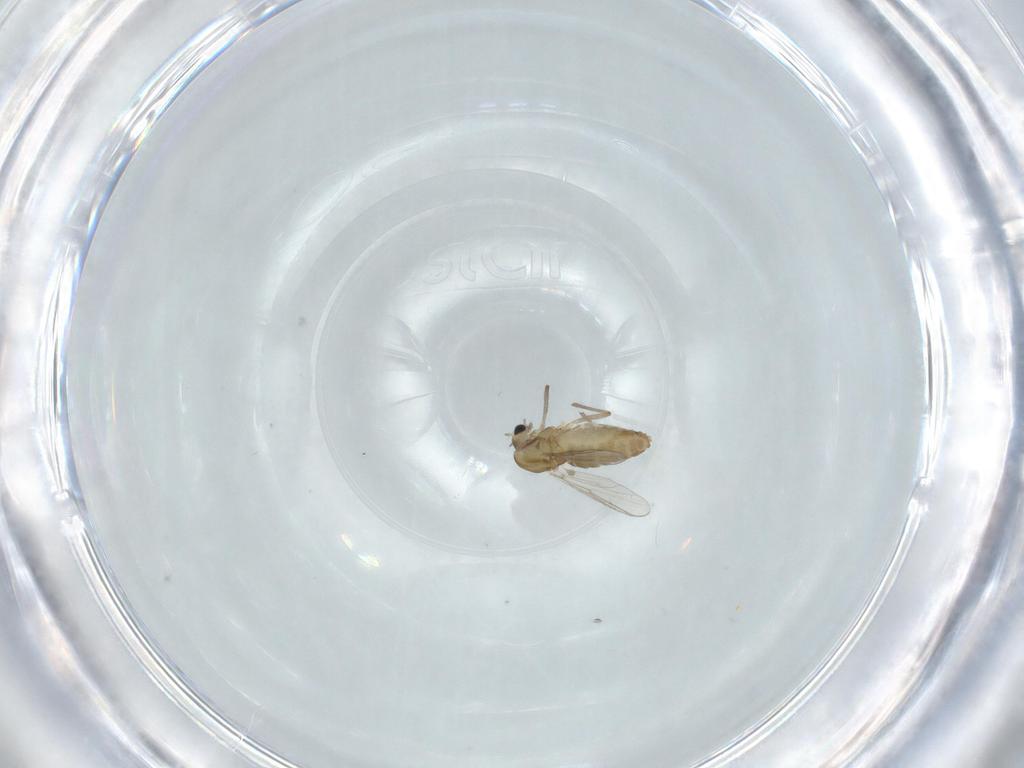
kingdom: Animalia
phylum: Arthropoda
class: Insecta
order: Diptera
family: Chironomidae
